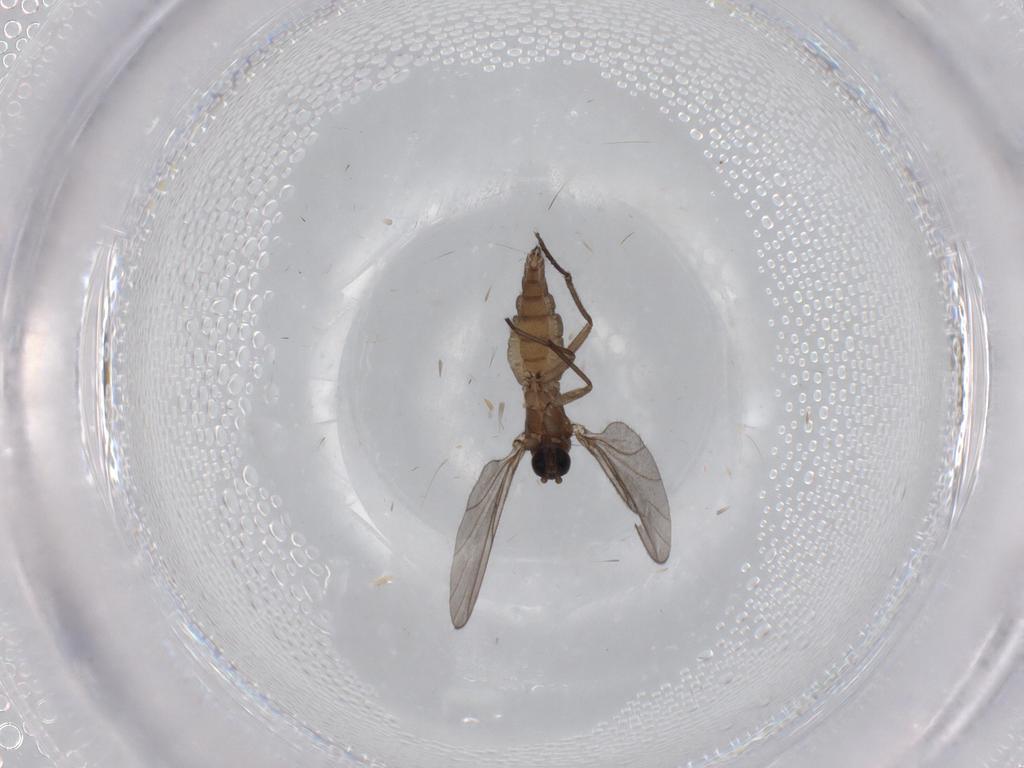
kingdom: Animalia
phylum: Arthropoda
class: Insecta
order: Diptera
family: Sciaridae
